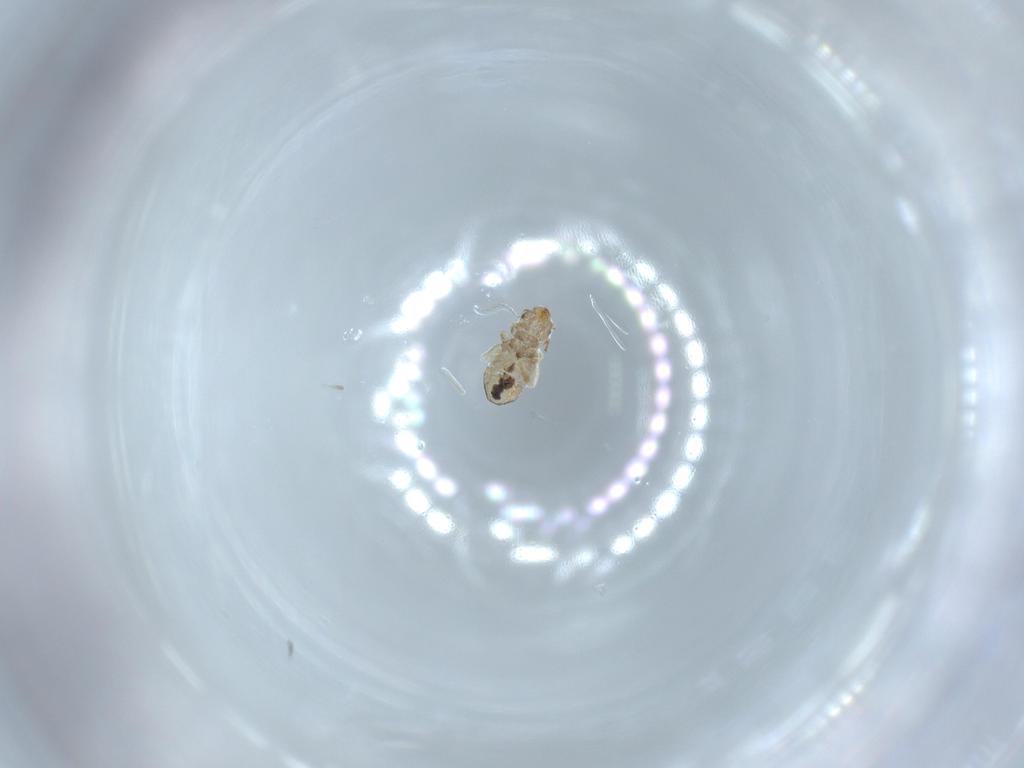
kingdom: Animalia
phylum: Arthropoda
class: Insecta
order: Psocodea
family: Liposcelididae
